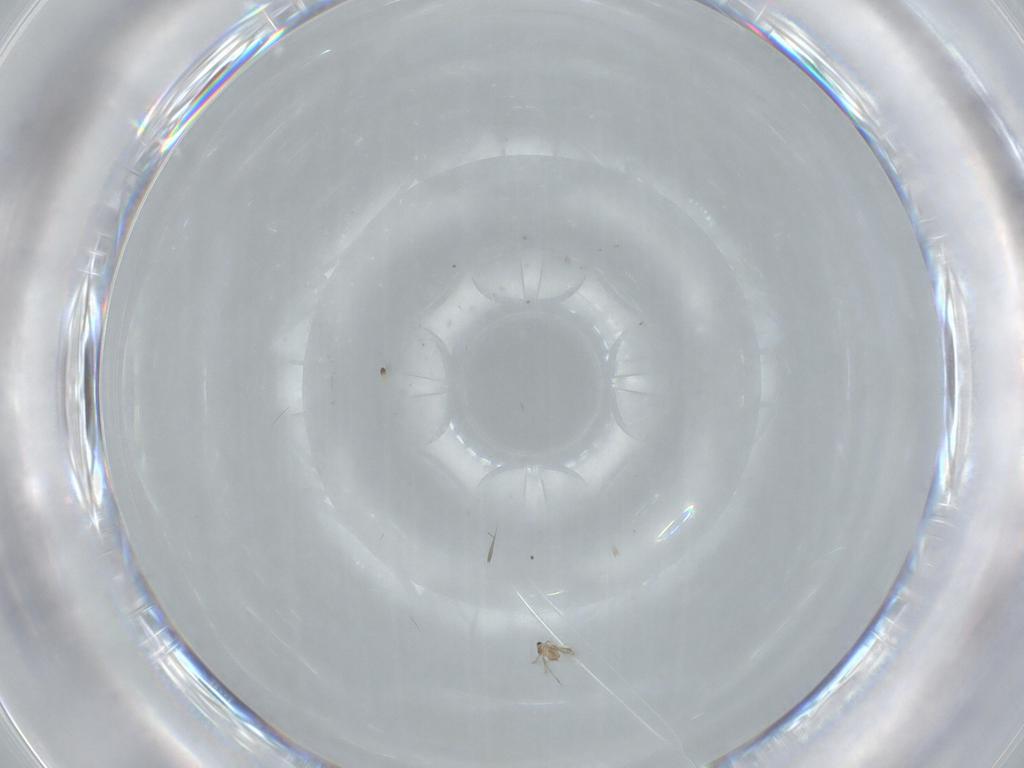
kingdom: Animalia
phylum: Arthropoda
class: Insecta
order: Hymenoptera
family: Mymaridae
